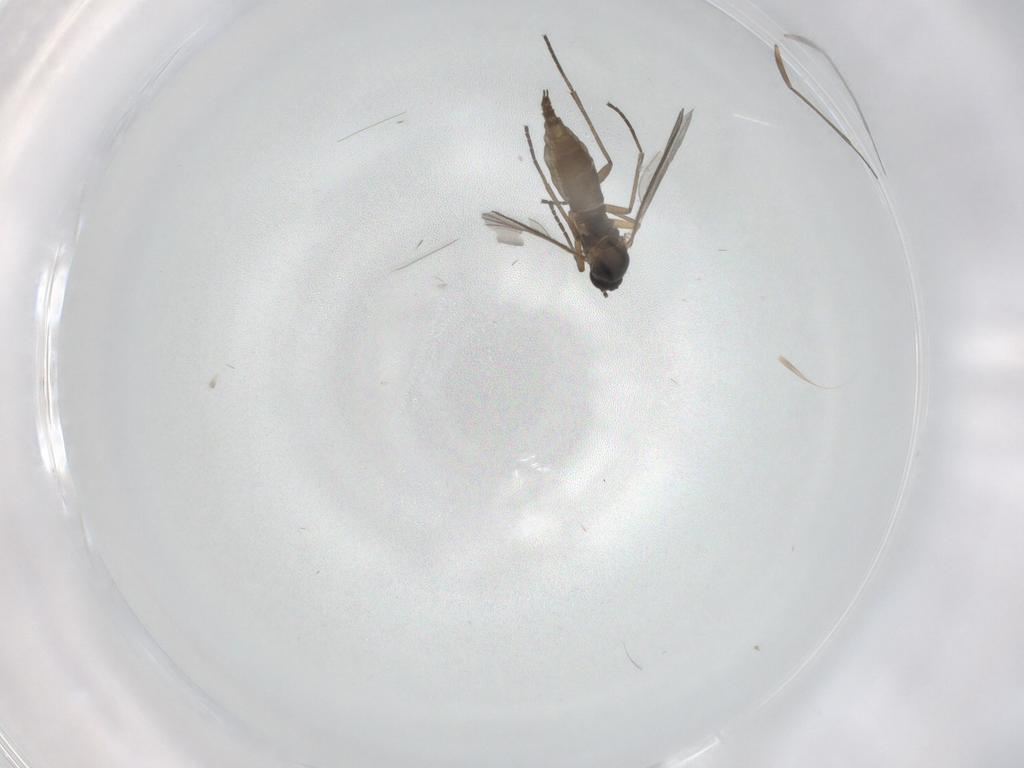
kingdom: Animalia
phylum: Arthropoda
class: Insecta
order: Diptera
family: Sciaridae
